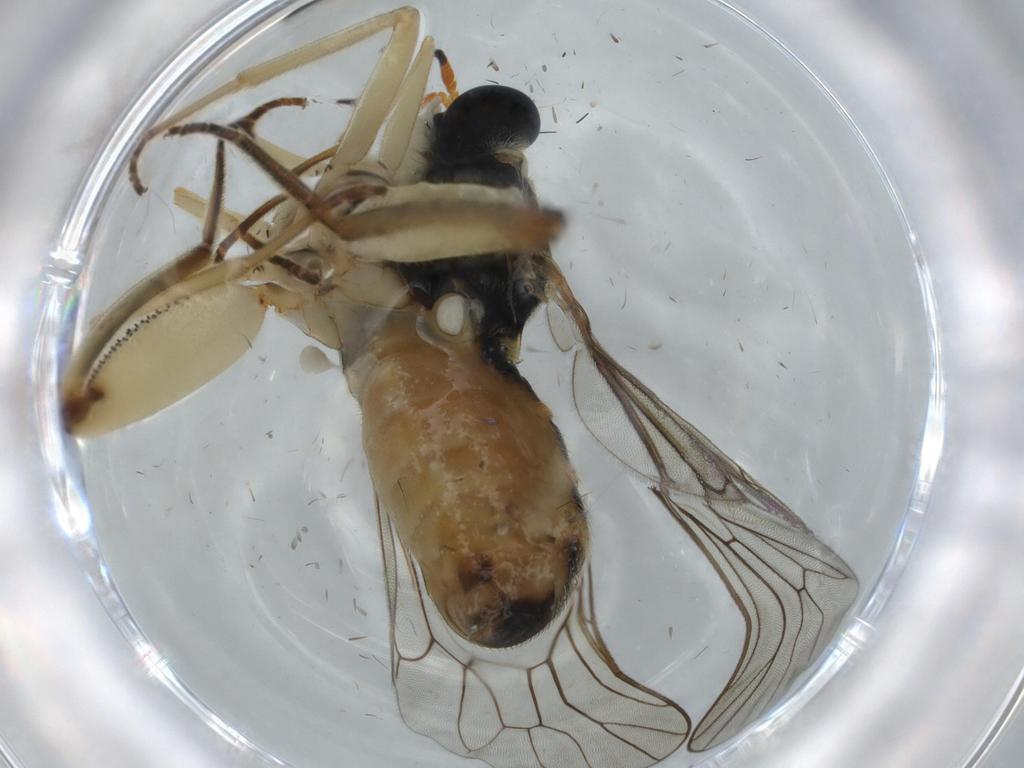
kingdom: Animalia
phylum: Arthropoda
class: Insecta
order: Diptera
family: Sciaridae
